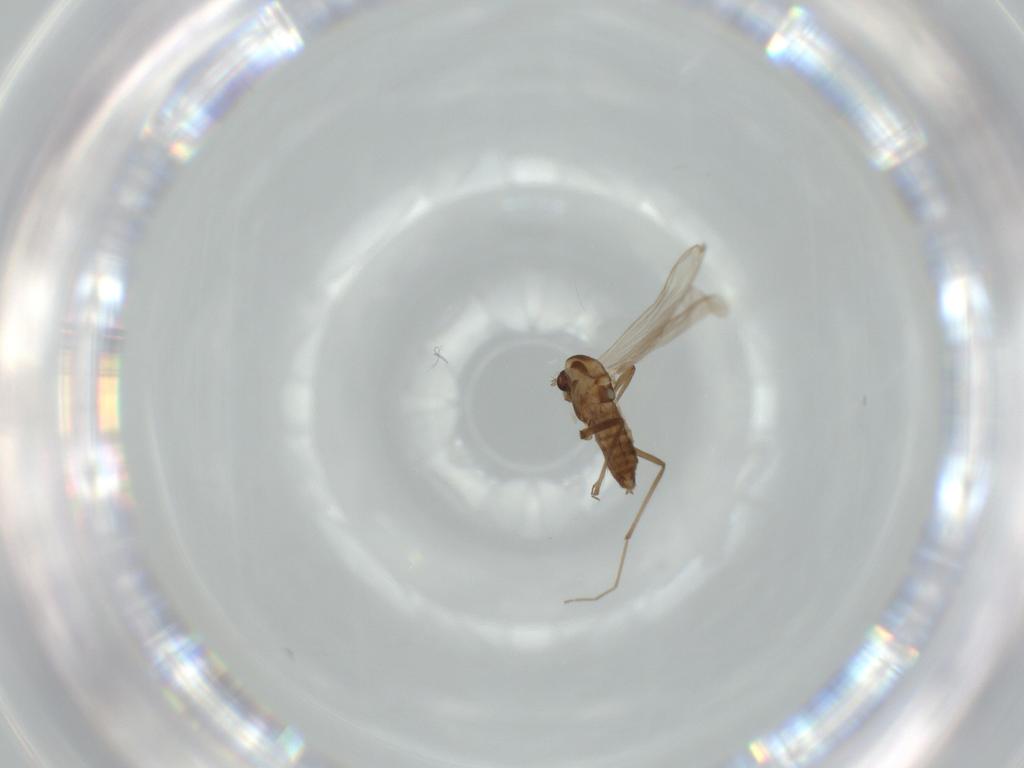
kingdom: Animalia
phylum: Arthropoda
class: Insecta
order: Diptera
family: Chironomidae
